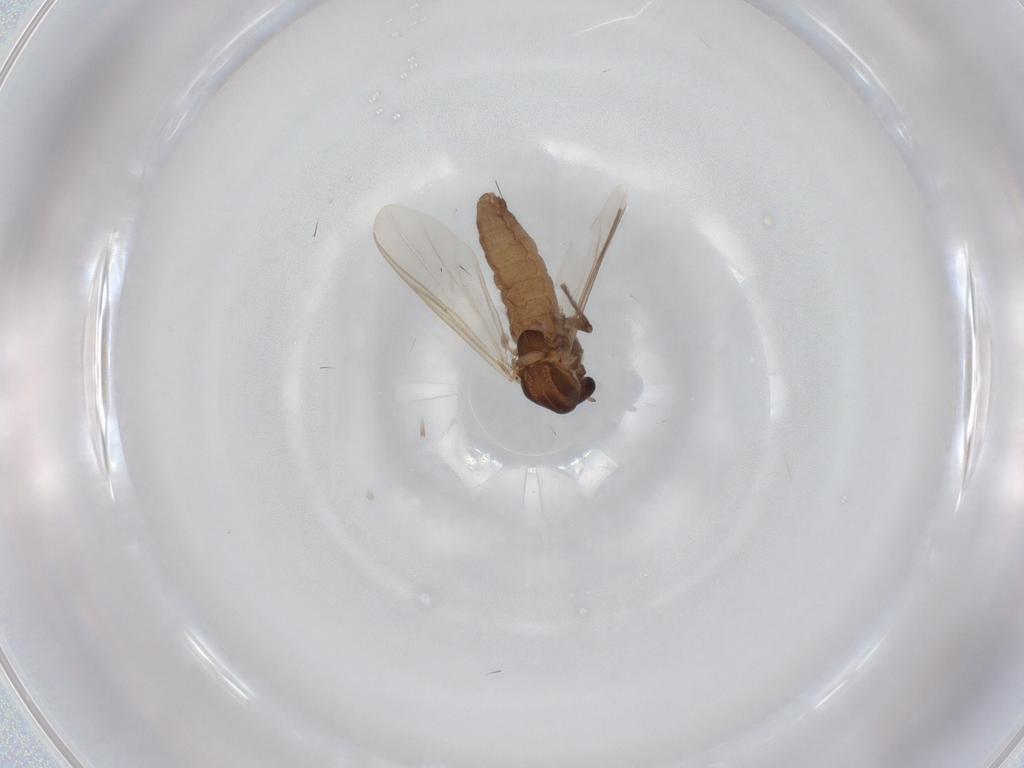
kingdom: Animalia
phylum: Arthropoda
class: Insecta
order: Diptera
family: Chironomidae
